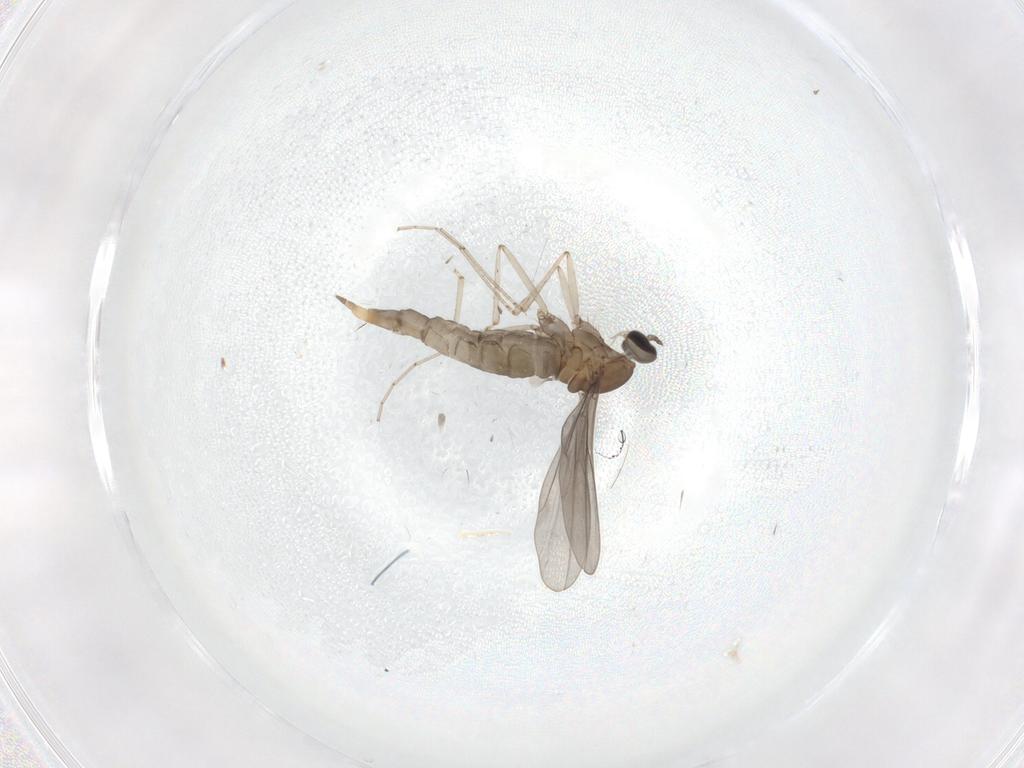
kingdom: Animalia
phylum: Arthropoda
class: Insecta
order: Diptera
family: Cecidomyiidae
